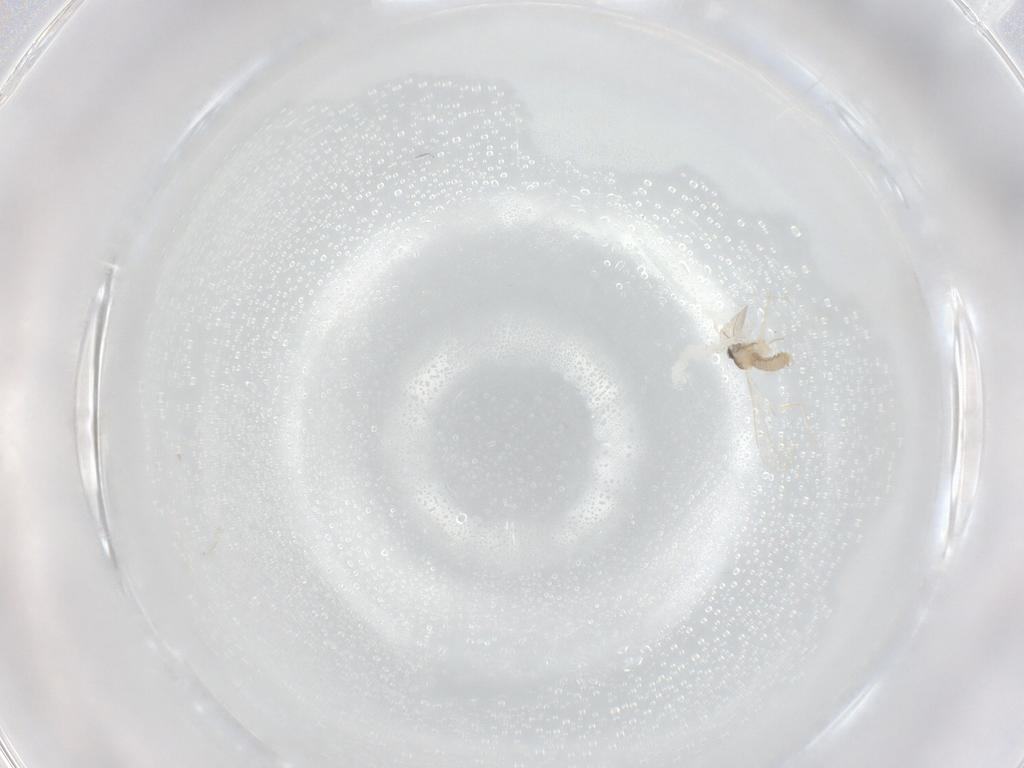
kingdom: Animalia
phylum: Arthropoda
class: Insecta
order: Diptera
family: Cecidomyiidae
